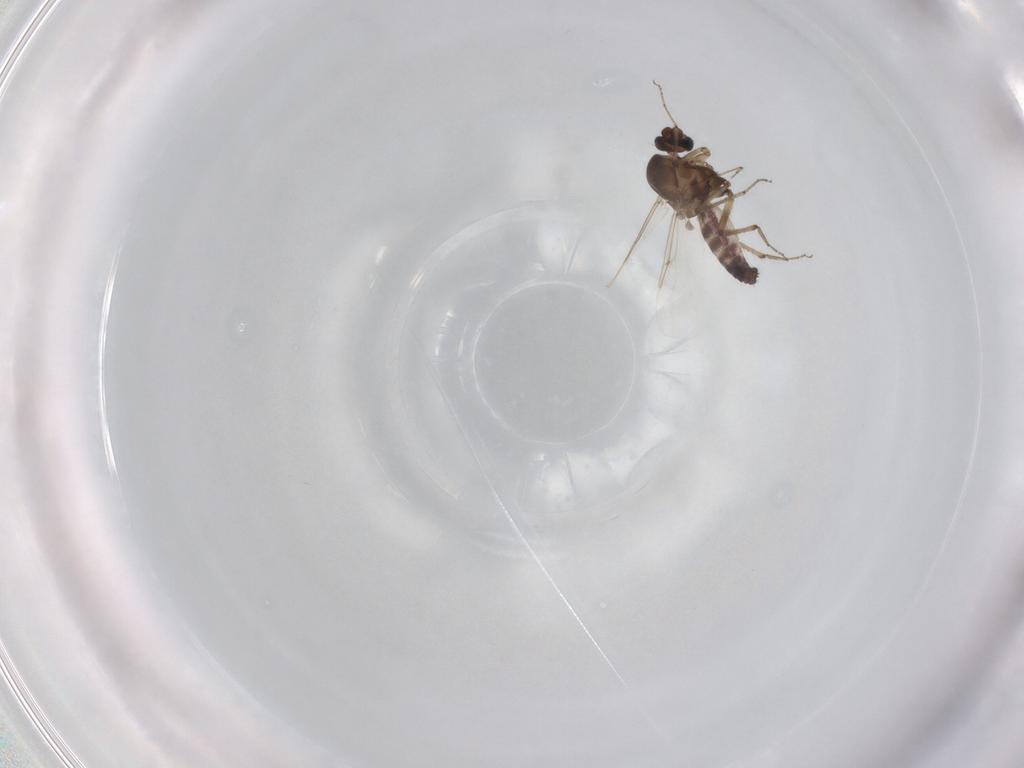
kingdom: Animalia
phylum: Arthropoda
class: Insecta
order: Diptera
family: Ceratopogonidae
